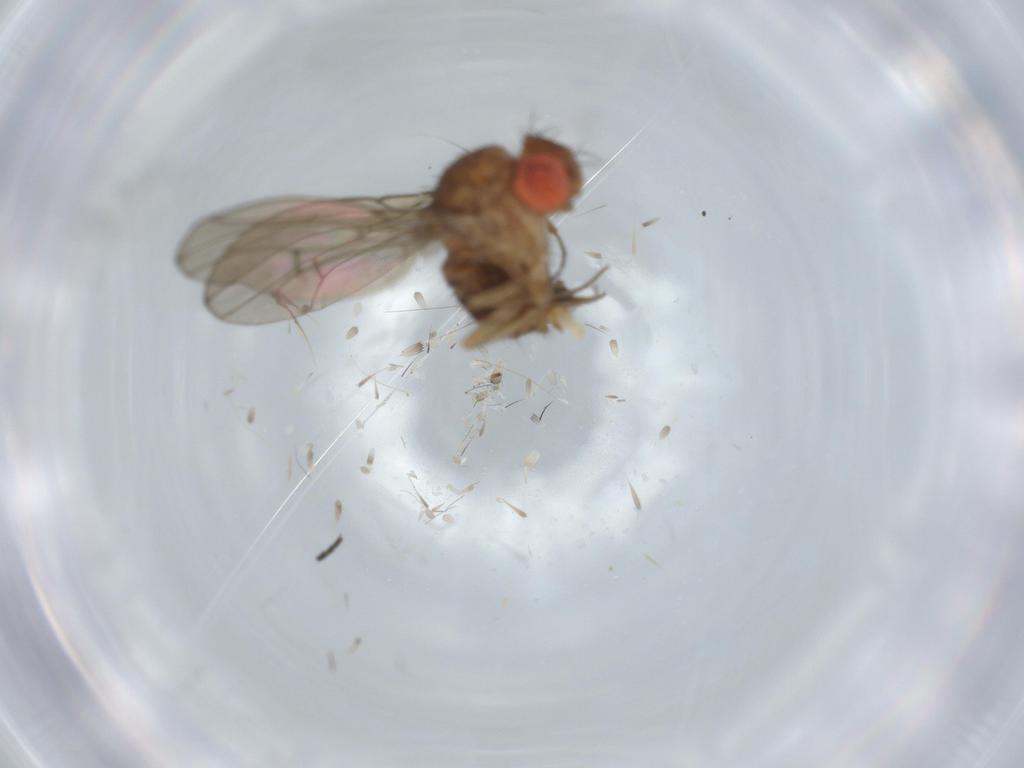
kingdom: Animalia
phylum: Arthropoda
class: Insecta
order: Diptera
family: Drosophilidae
